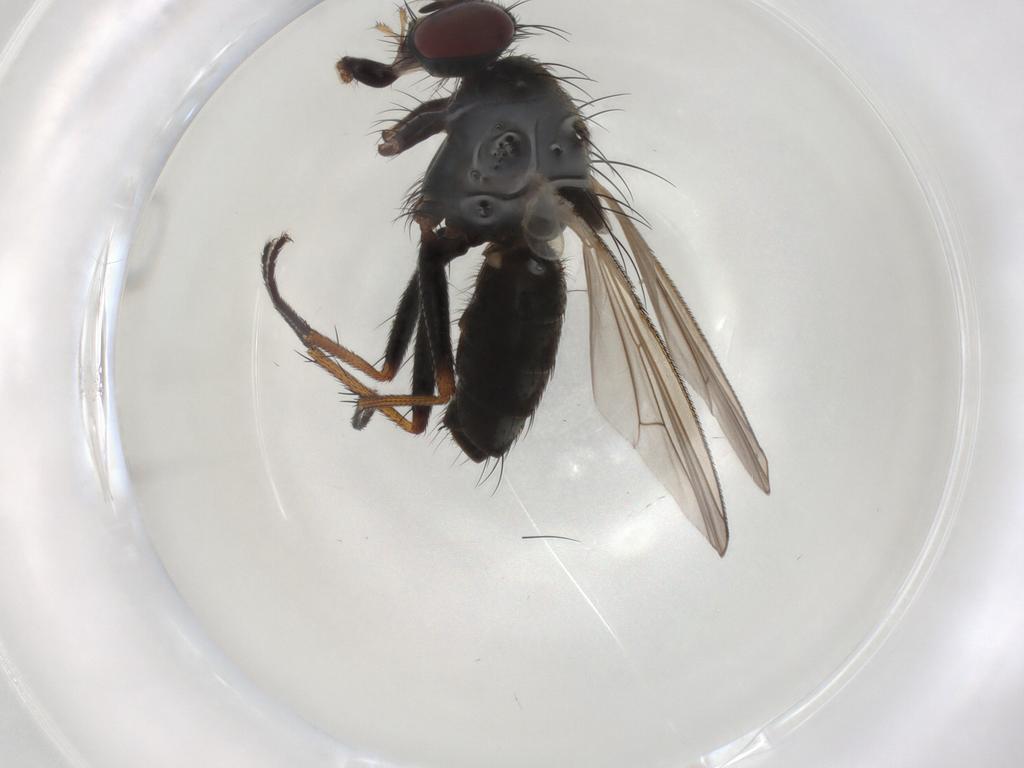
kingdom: Animalia
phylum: Arthropoda
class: Insecta
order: Diptera
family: Muscidae
